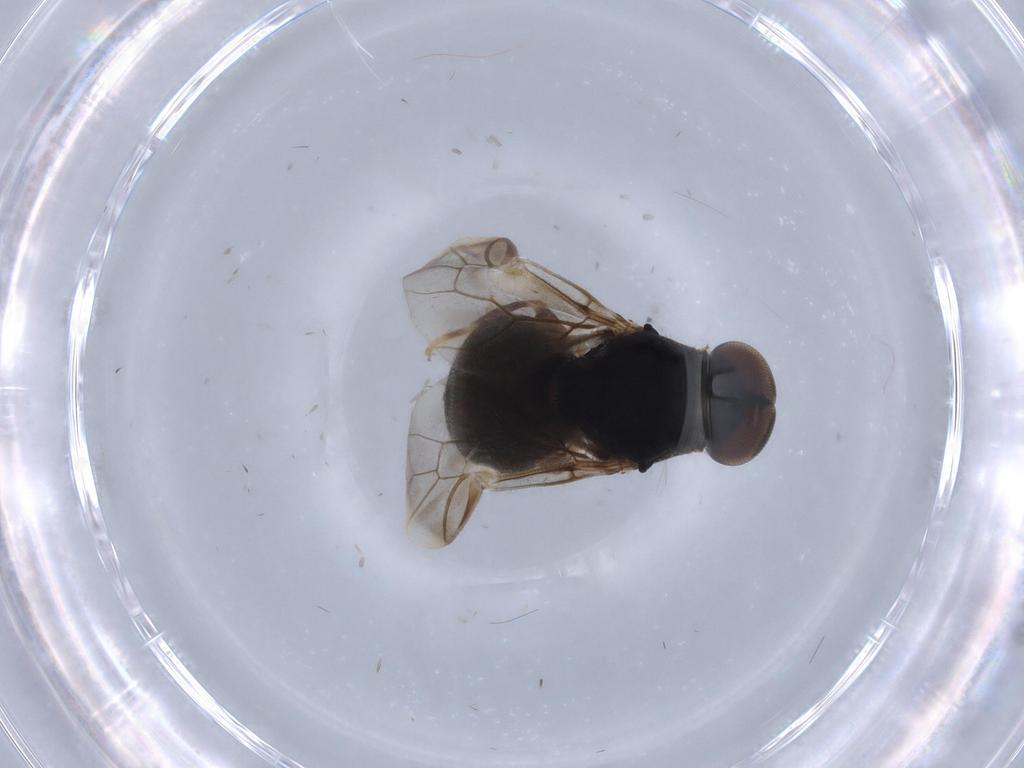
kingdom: Animalia
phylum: Arthropoda
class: Insecta
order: Diptera
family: Stratiomyidae
